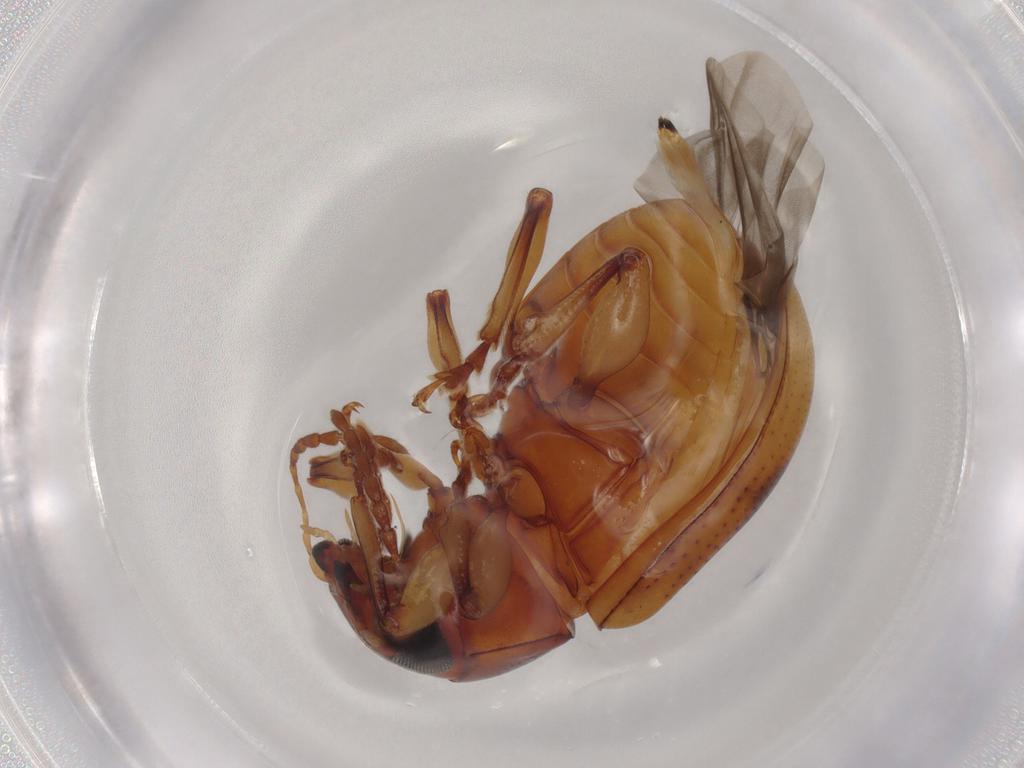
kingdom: Animalia
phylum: Arthropoda
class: Insecta
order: Coleoptera
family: Chrysomelidae
